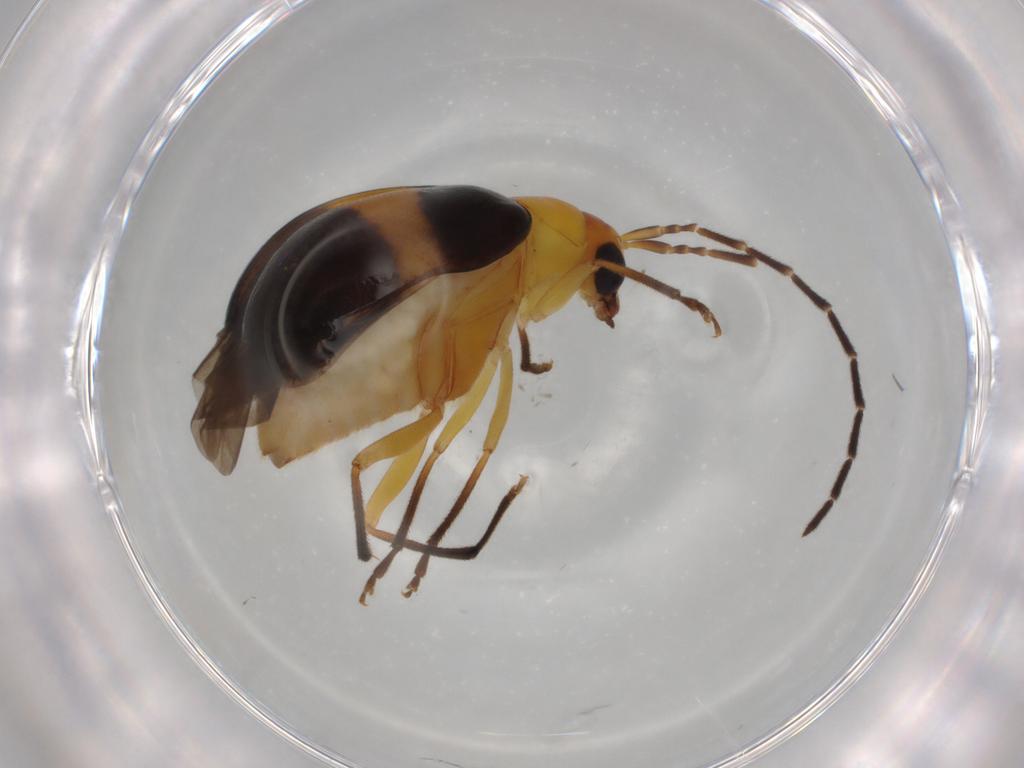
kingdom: Animalia
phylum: Arthropoda
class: Insecta
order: Coleoptera
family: Chrysomelidae
